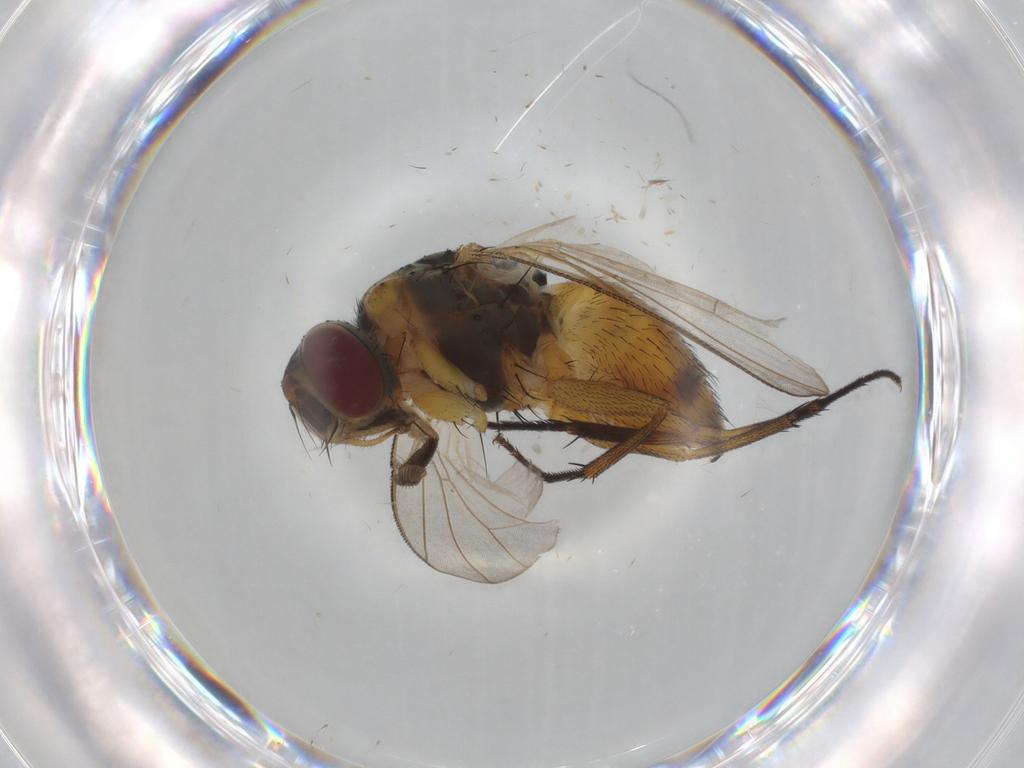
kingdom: Animalia
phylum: Arthropoda
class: Insecta
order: Diptera
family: Muscidae
